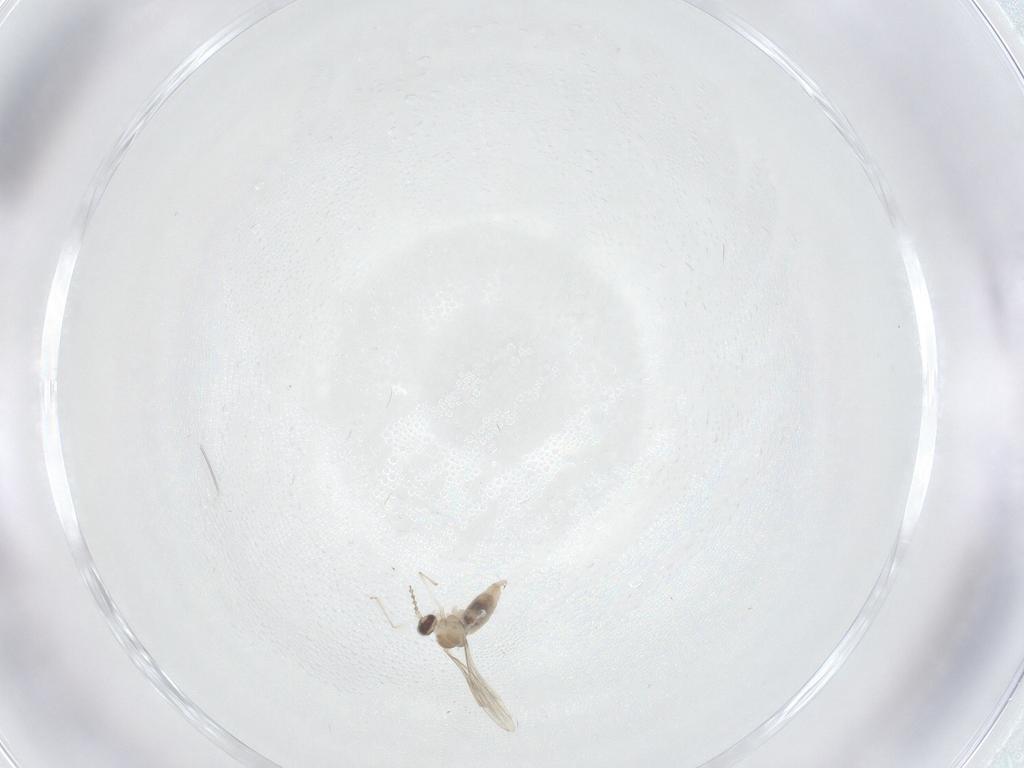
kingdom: Animalia
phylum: Arthropoda
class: Insecta
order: Diptera
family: Cecidomyiidae
